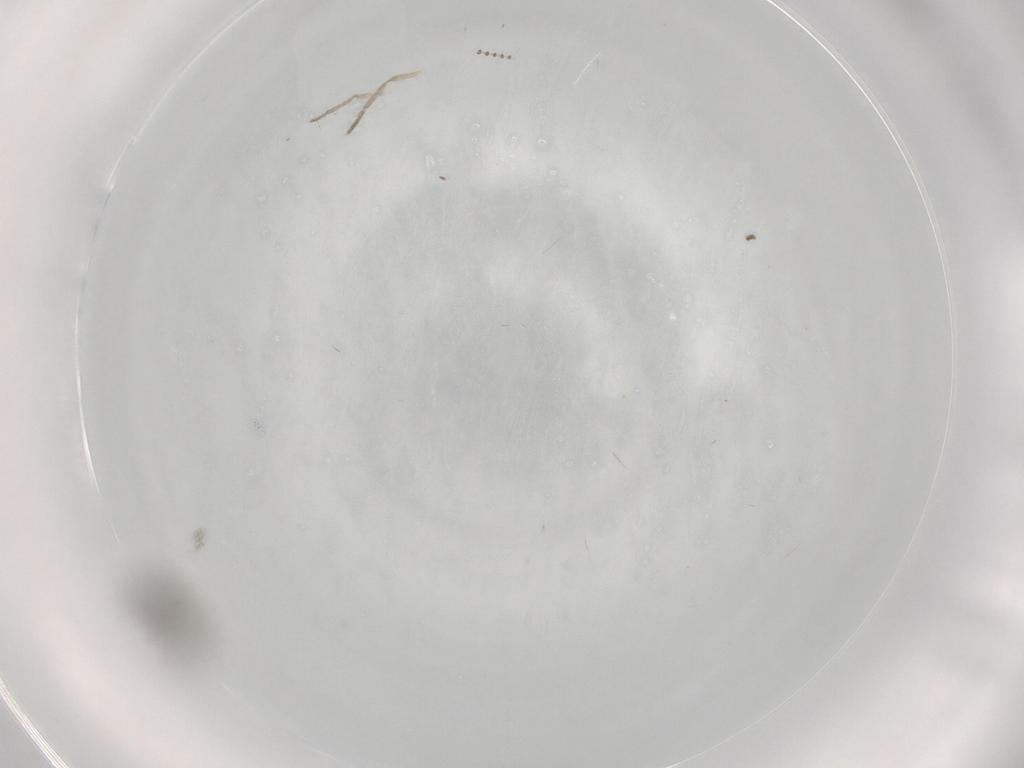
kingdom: Animalia
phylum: Arthropoda
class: Insecta
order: Diptera
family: Psychodidae
